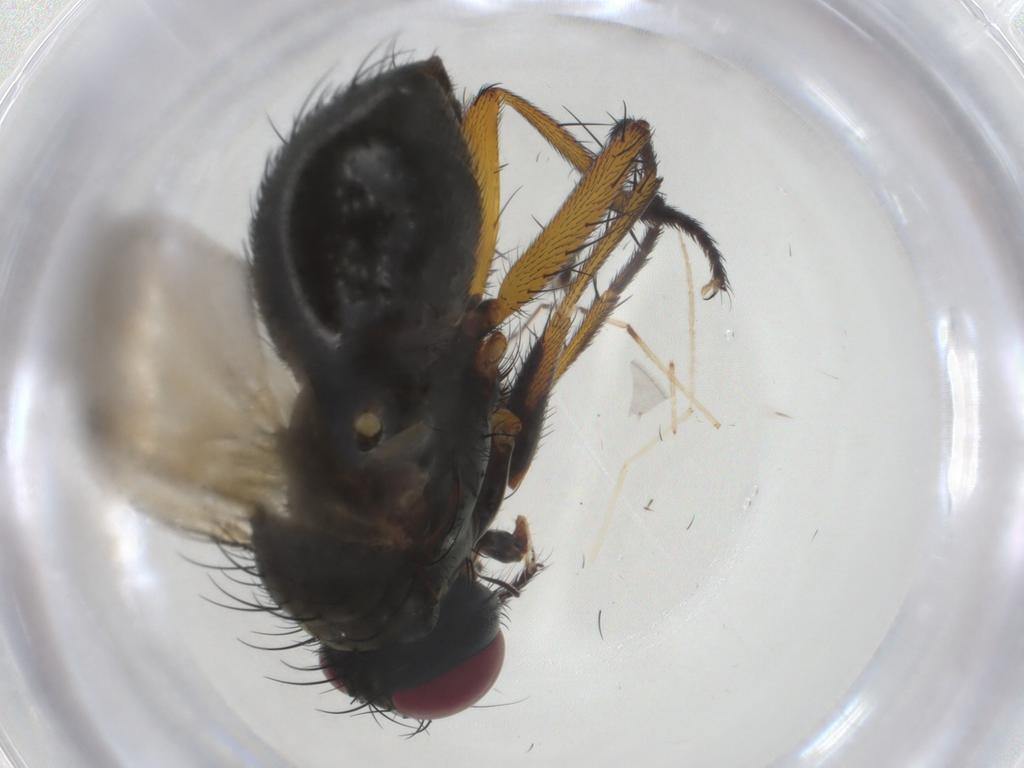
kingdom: Animalia
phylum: Arthropoda
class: Insecta
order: Diptera
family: Muscidae
